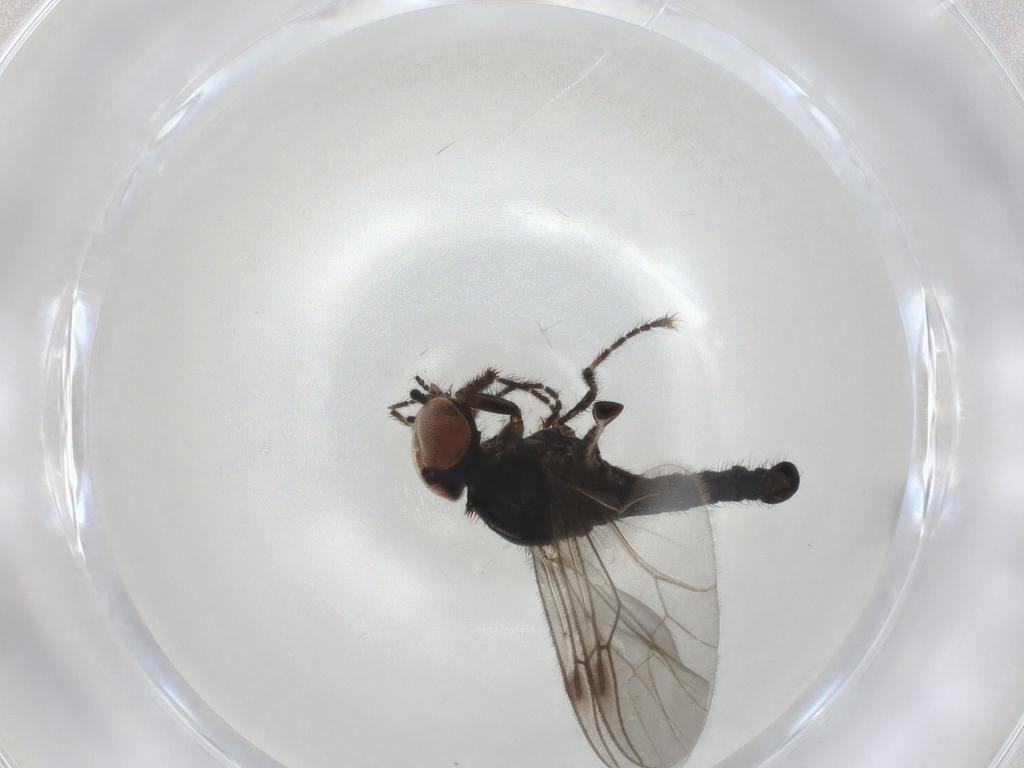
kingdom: Animalia
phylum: Arthropoda
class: Insecta
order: Diptera
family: Bibionidae
